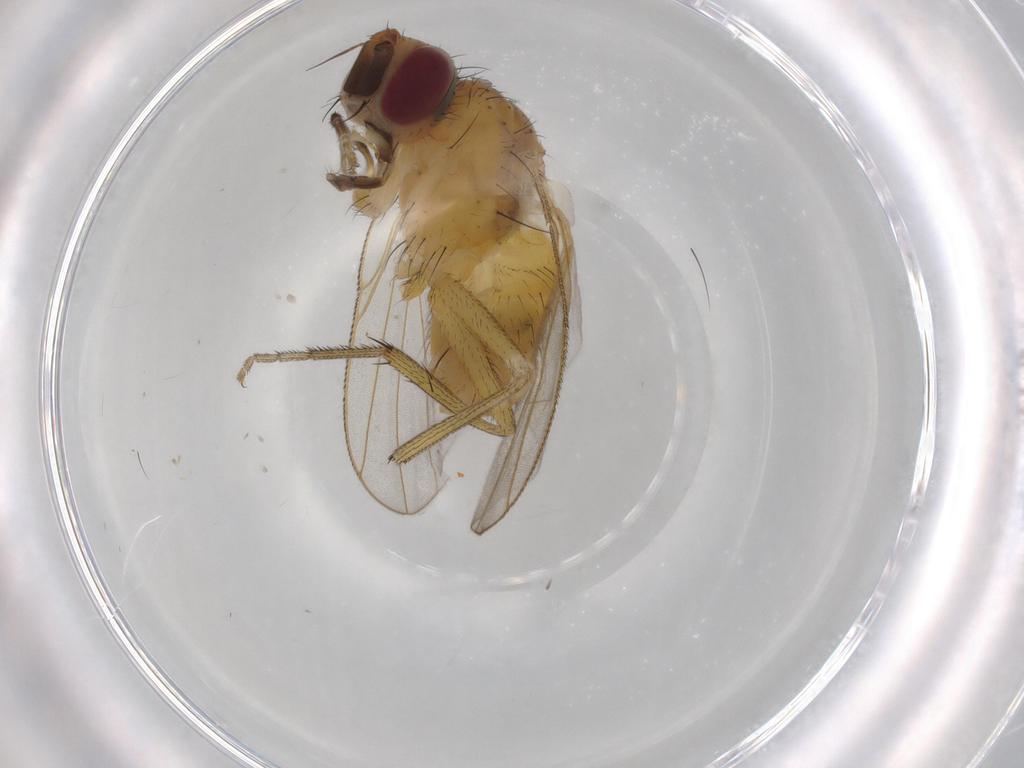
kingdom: Animalia
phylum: Arthropoda
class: Insecta
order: Diptera
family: Muscidae
